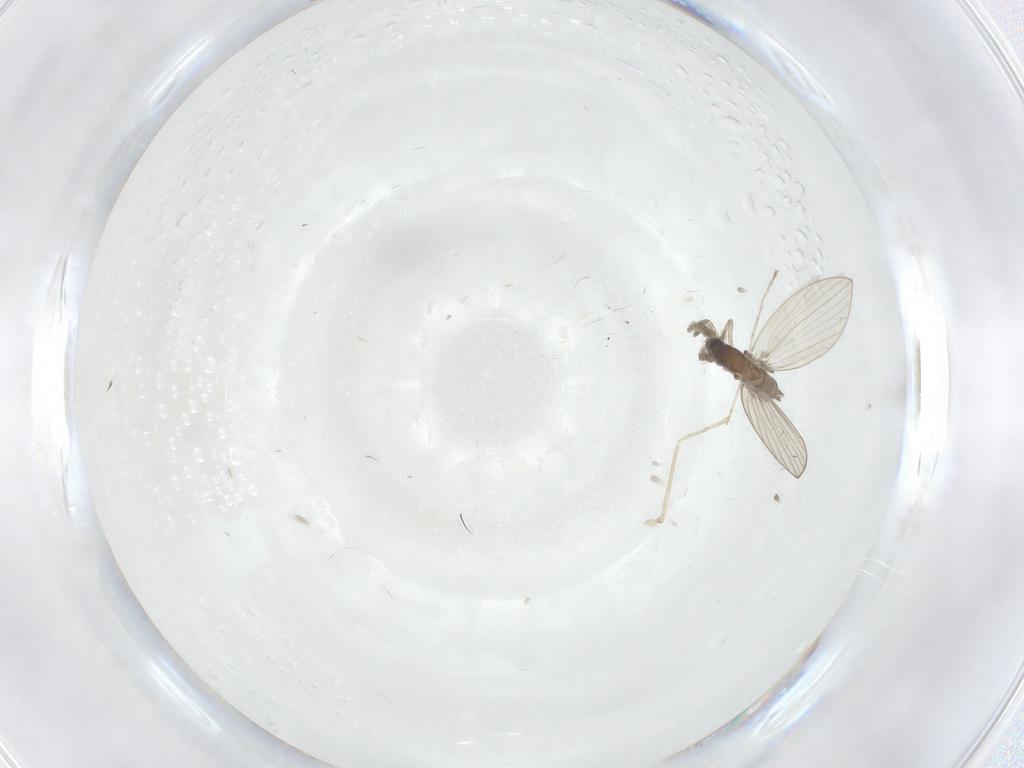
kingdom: Animalia
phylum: Arthropoda
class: Insecta
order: Diptera
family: Psychodidae
